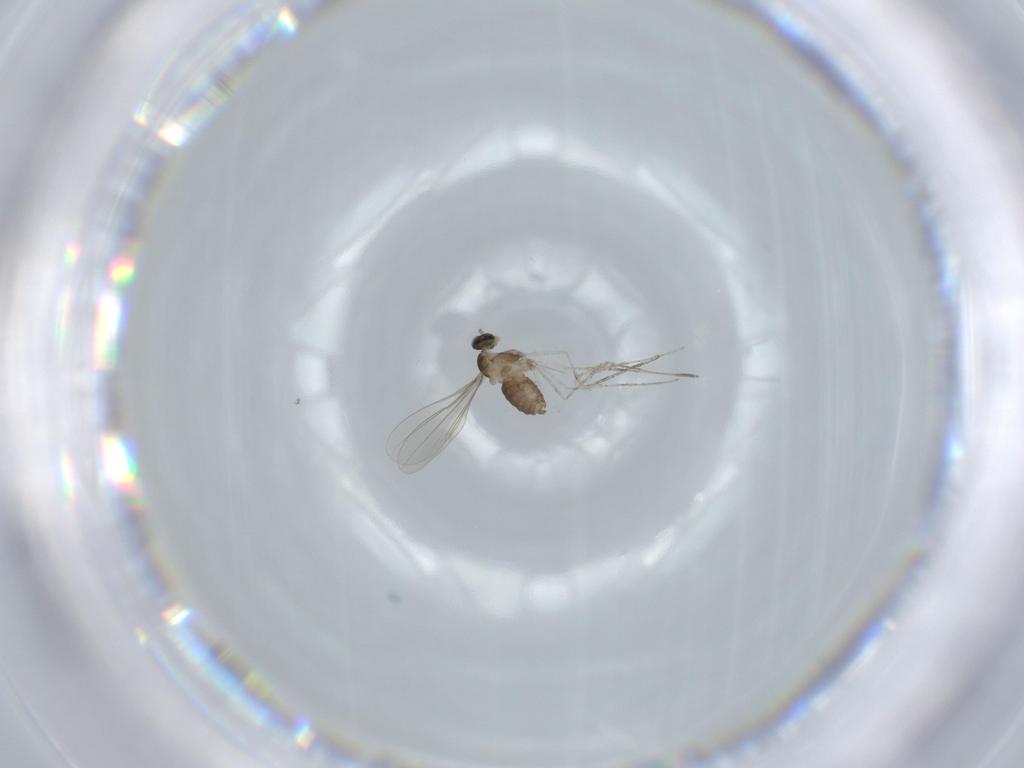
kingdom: Animalia
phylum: Arthropoda
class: Insecta
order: Diptera
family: Cecidomyiidae
